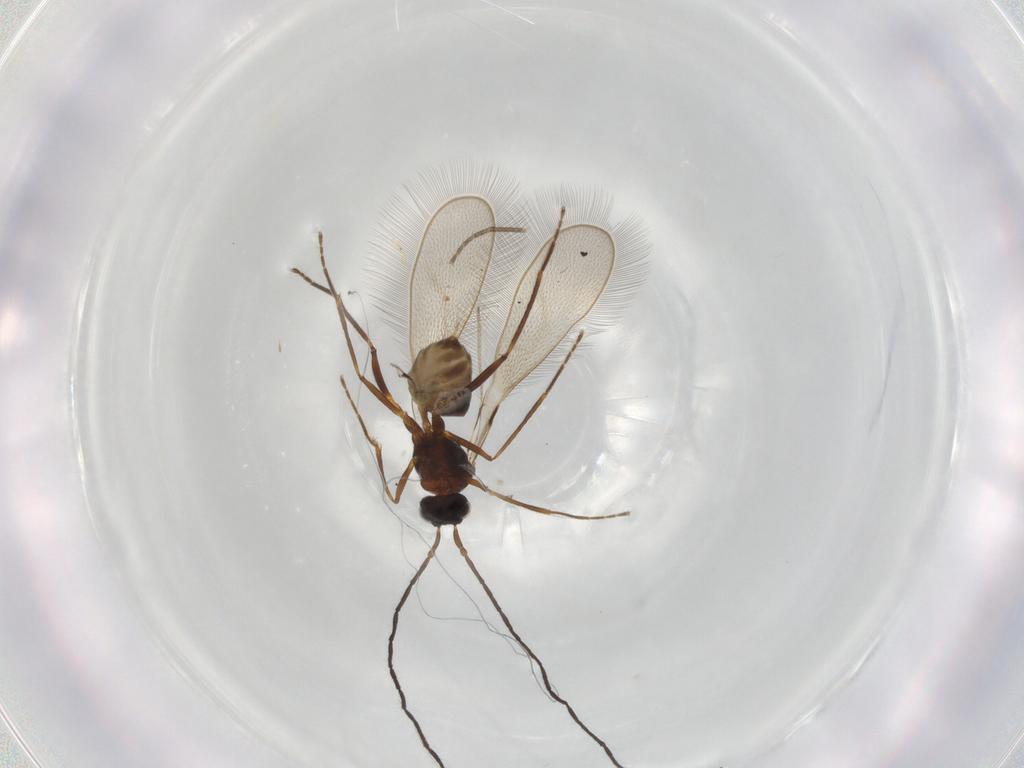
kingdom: Animalia
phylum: Arthropoda
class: Insecta
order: Hymenoptera
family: Mymaridae
